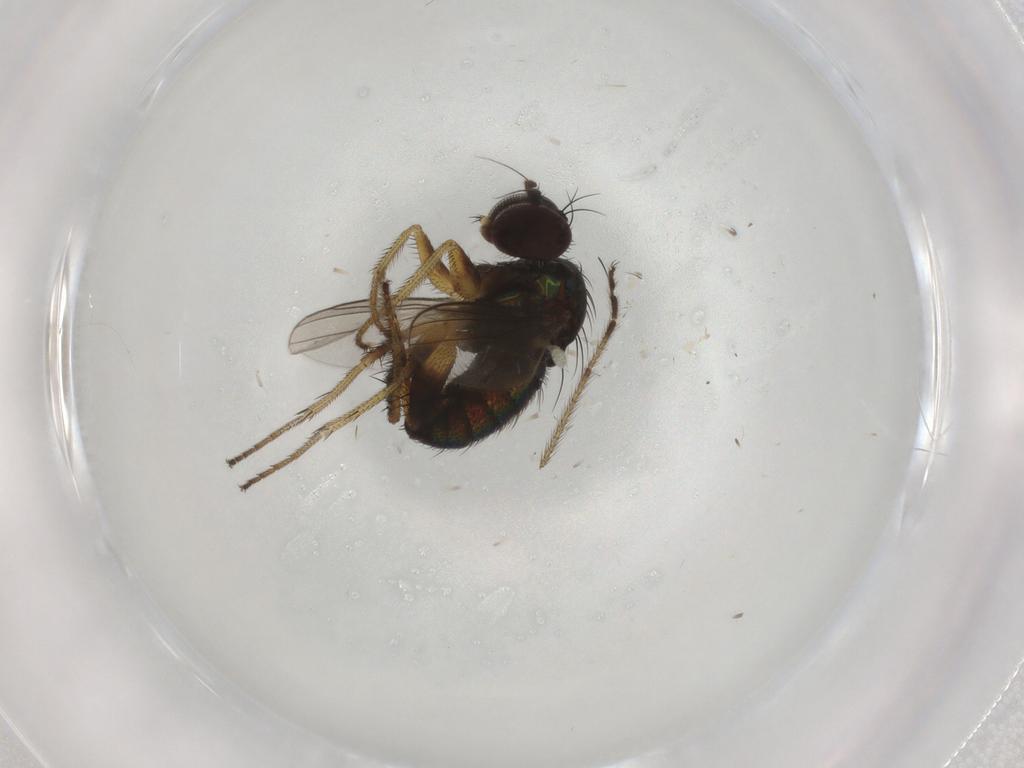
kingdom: Animalia
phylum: Arthropoda
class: Insecta
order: Diptera
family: Dolichopodidae
